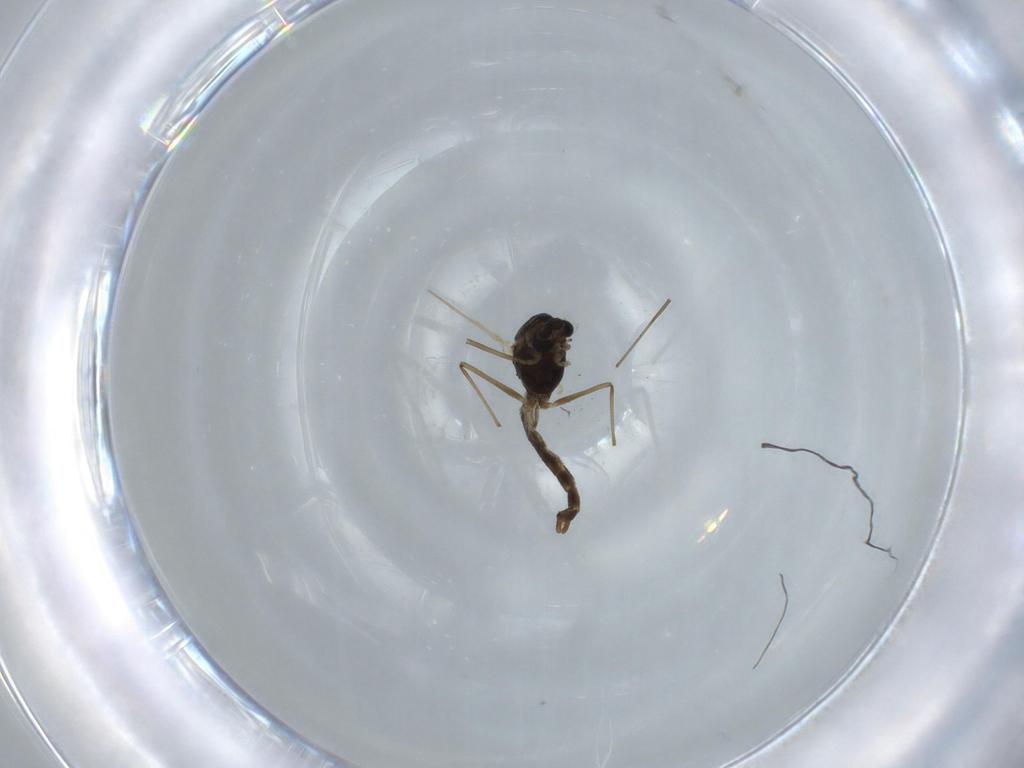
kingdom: Animalia
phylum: Arthropoda
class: Insecta
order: Diptera
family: Chironomidae
